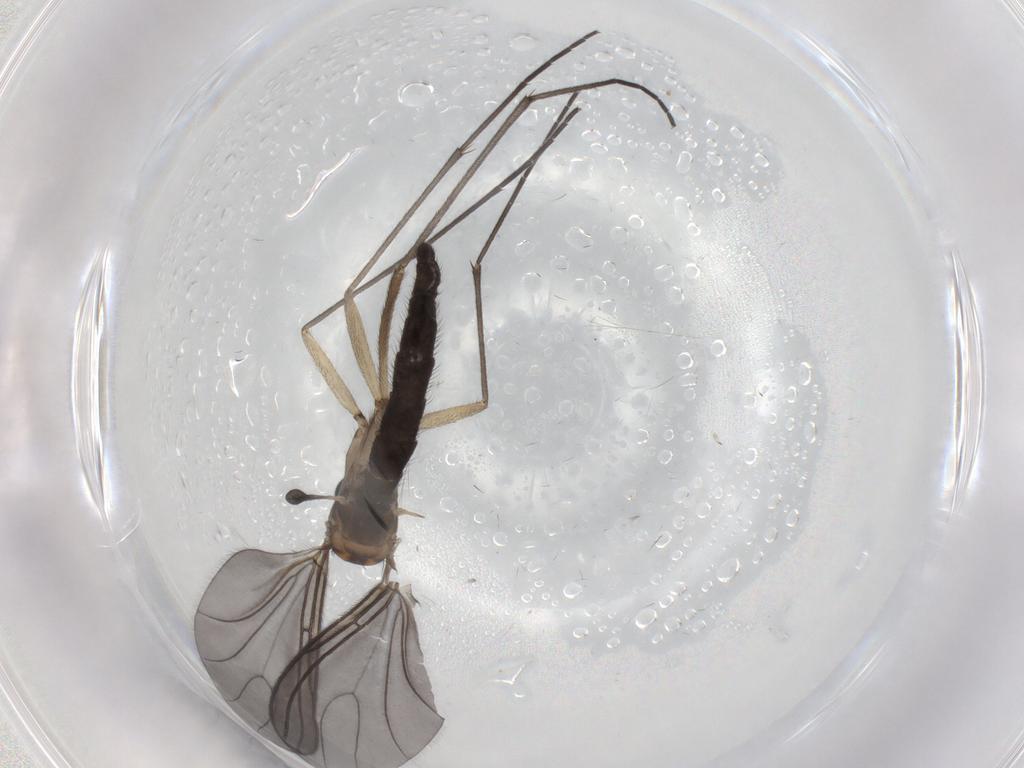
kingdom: Animalia
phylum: Arthropoda
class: Insecta
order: Diptera
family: Sciaridae
